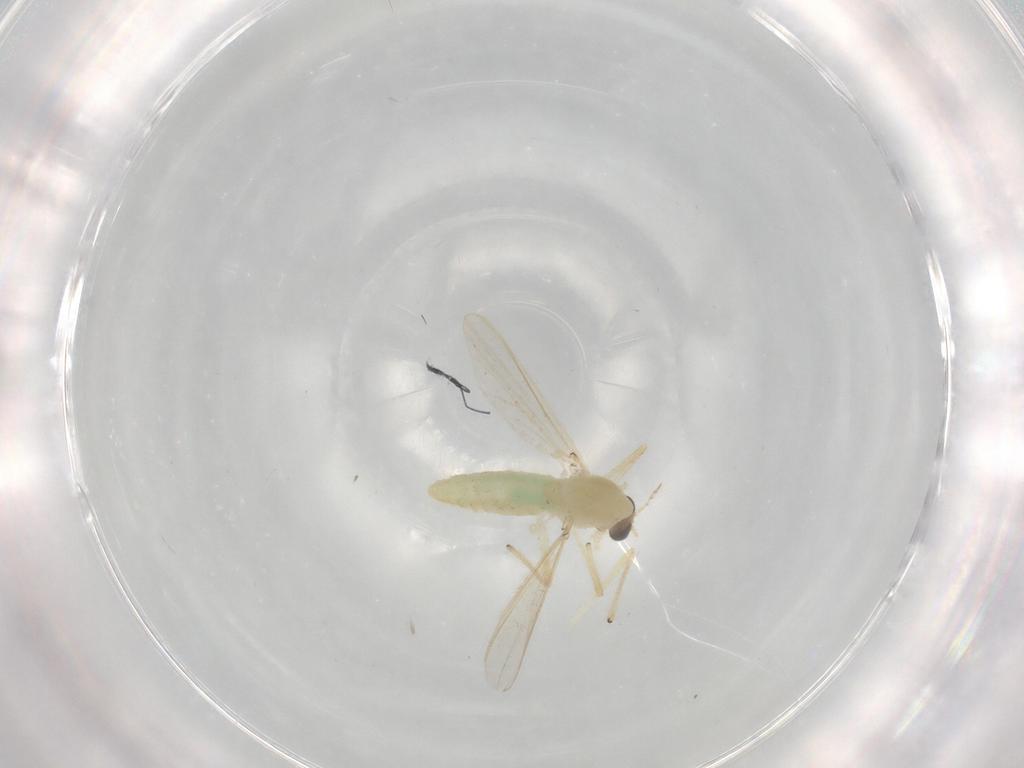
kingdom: Animalia
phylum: Arthropoda
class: Insecta
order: Diptera
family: Chironomidae
